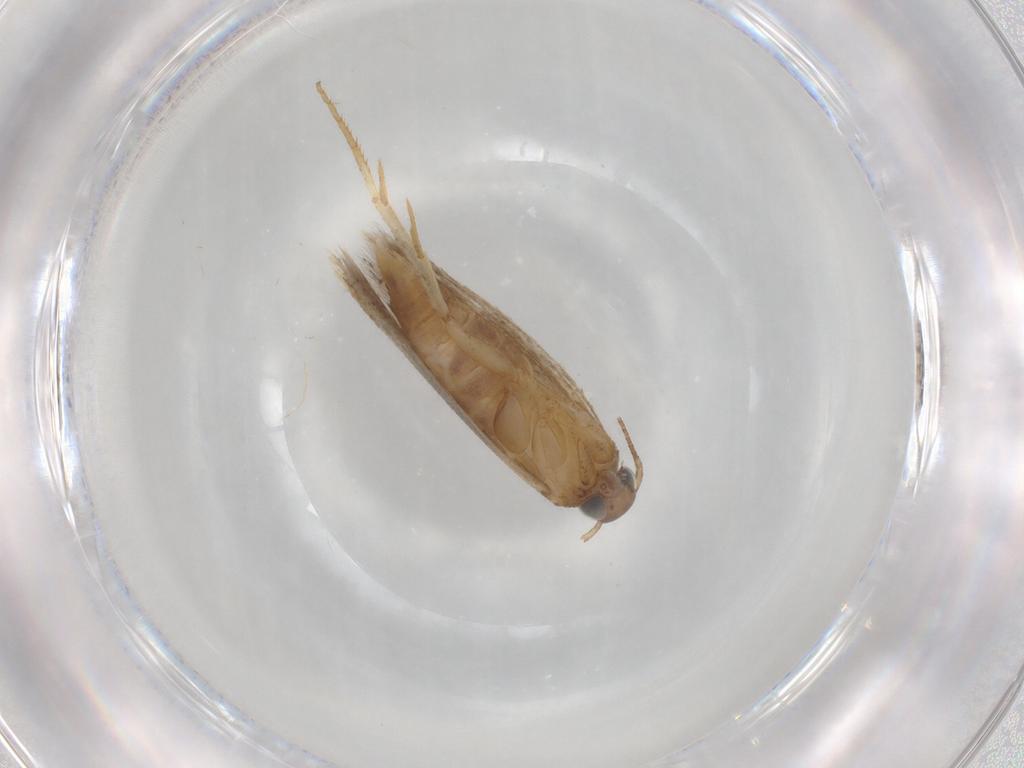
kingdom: Animalia
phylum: Arthropoda
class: Insecta
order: Lepidoptera
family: Gelechiidae
